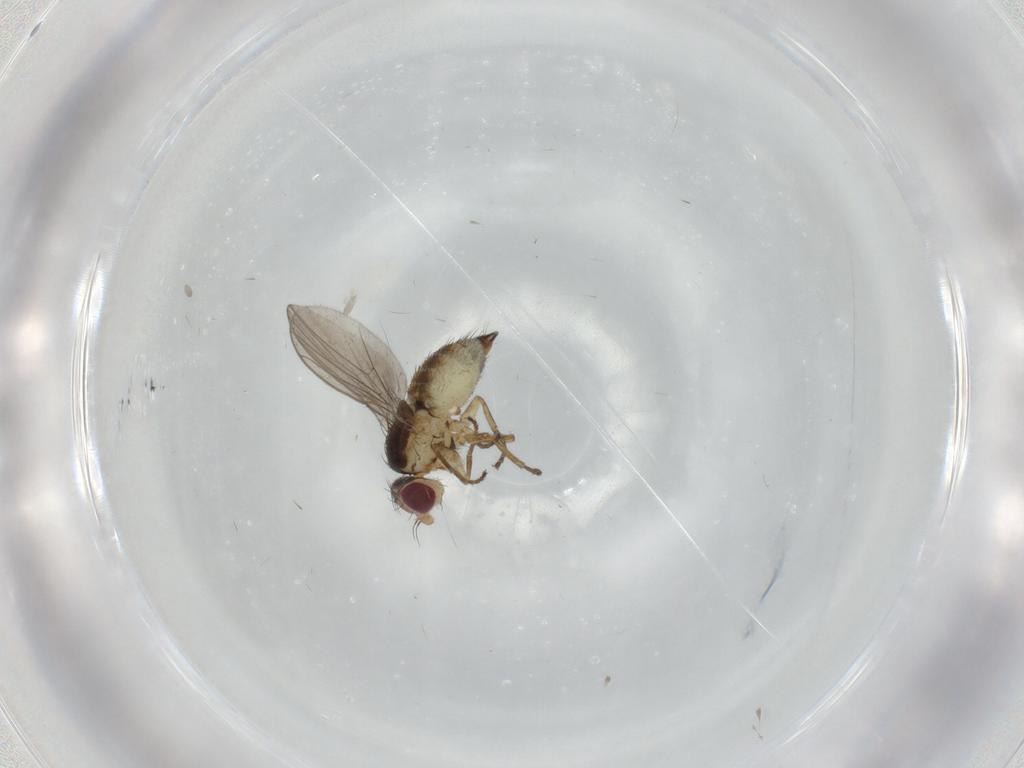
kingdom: Animalia
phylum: Arthropoda
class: Insecta
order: Diptera
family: Agromyzidae
